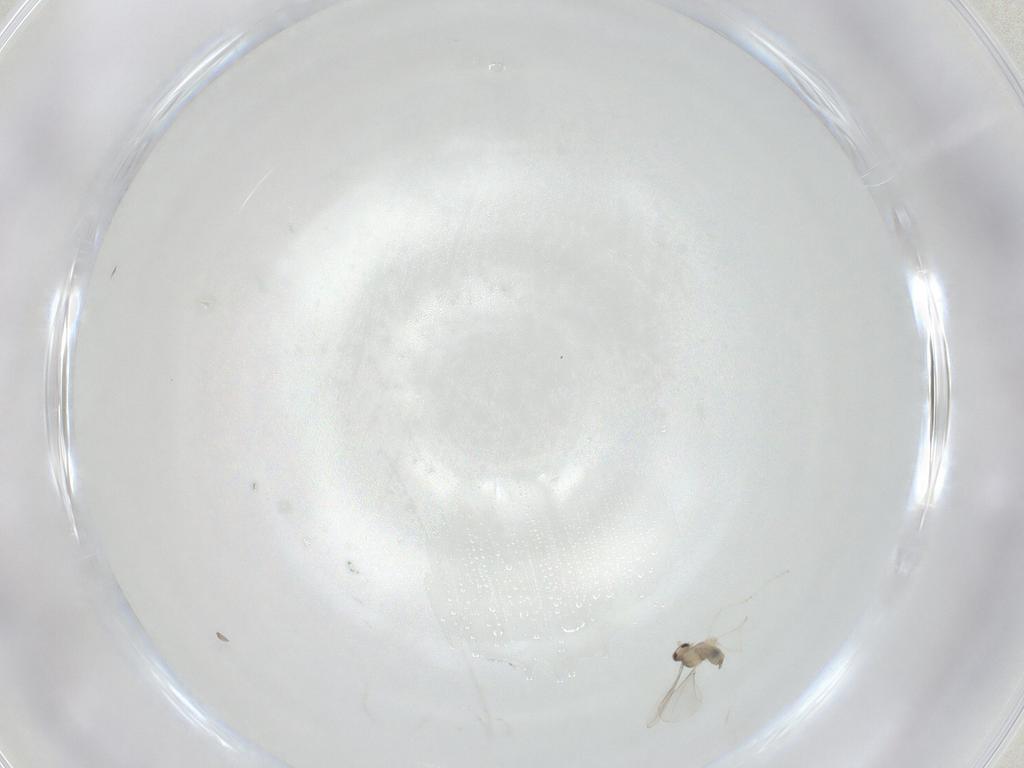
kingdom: Animalia
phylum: Arthropoda
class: Insecta
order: Diptera
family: Cecidomyiidae
